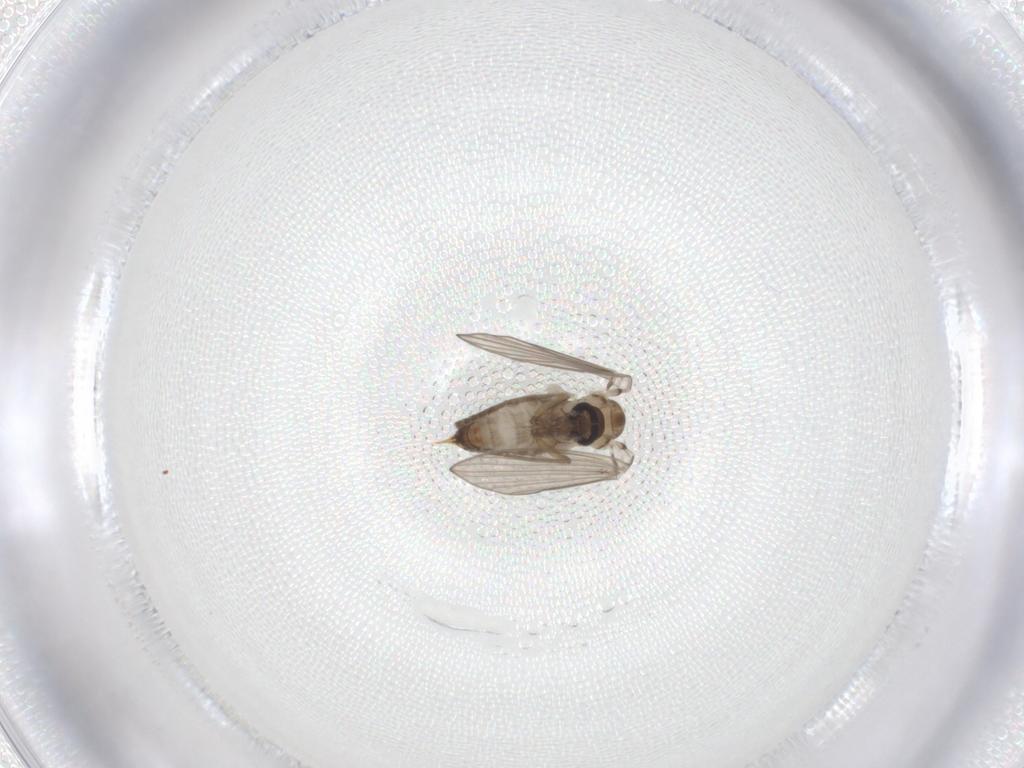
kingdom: Animalia
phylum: Arthropoda
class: Insecta
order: Diptera
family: Psychodidae
